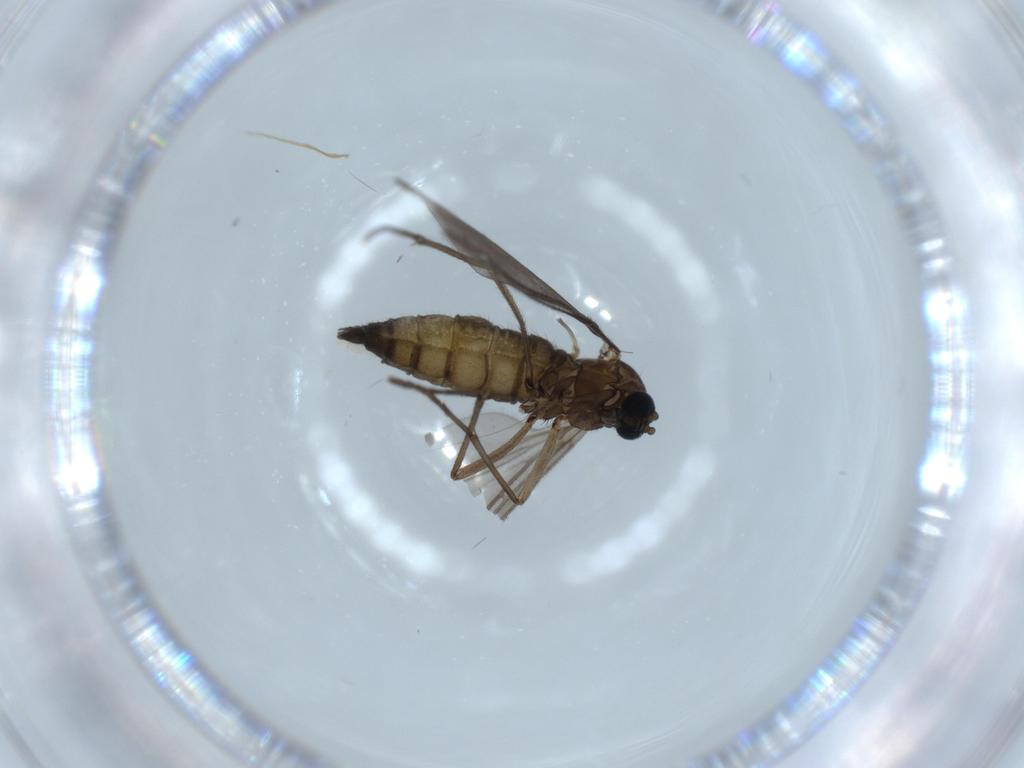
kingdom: Animalia
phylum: Arthropoda
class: Insecta
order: Diptera
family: Sciaridae
